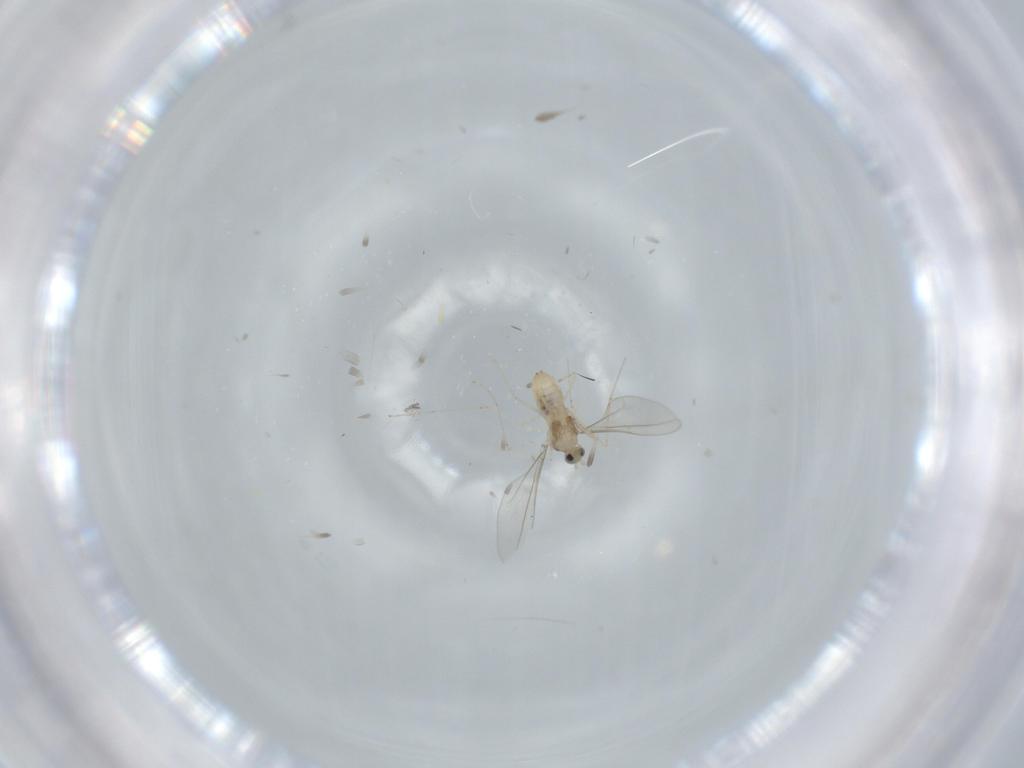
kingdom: Animalia
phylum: Arthropoda
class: Insecta
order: Diptera
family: Cecidomyiidae
